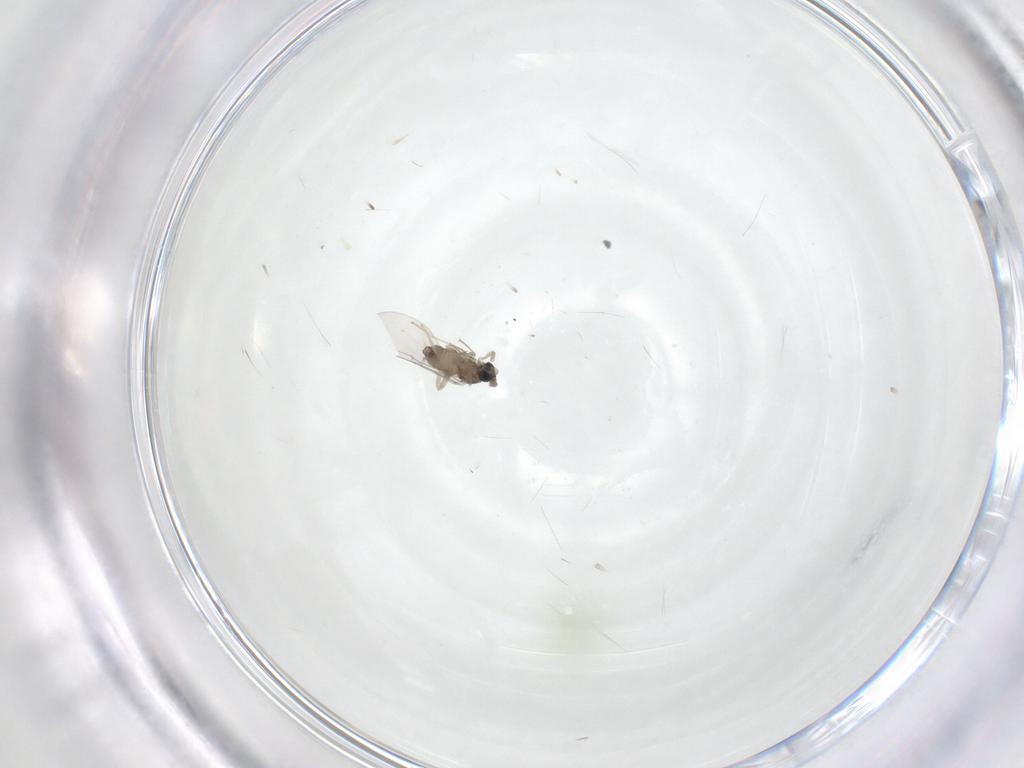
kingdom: Animalia
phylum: Arthropoda
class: Insecta
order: Diptera
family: Cecidomyiidae
